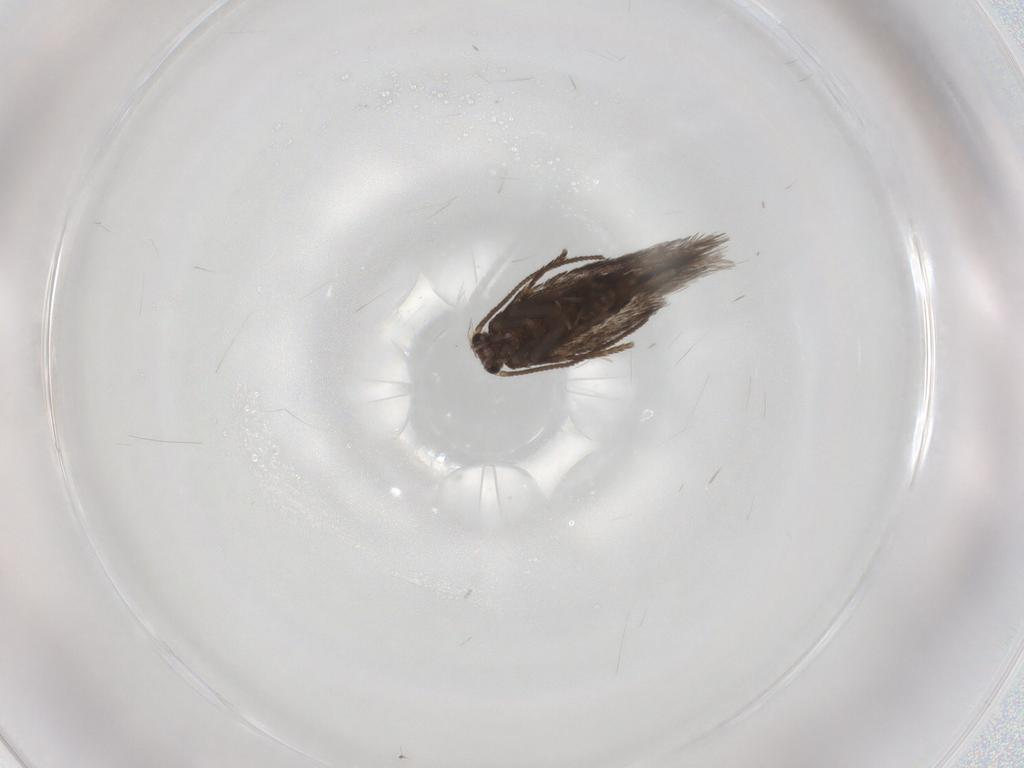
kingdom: Animalia
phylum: Arthropoda
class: Insecta
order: Lepidoptera
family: Nepticulidae
